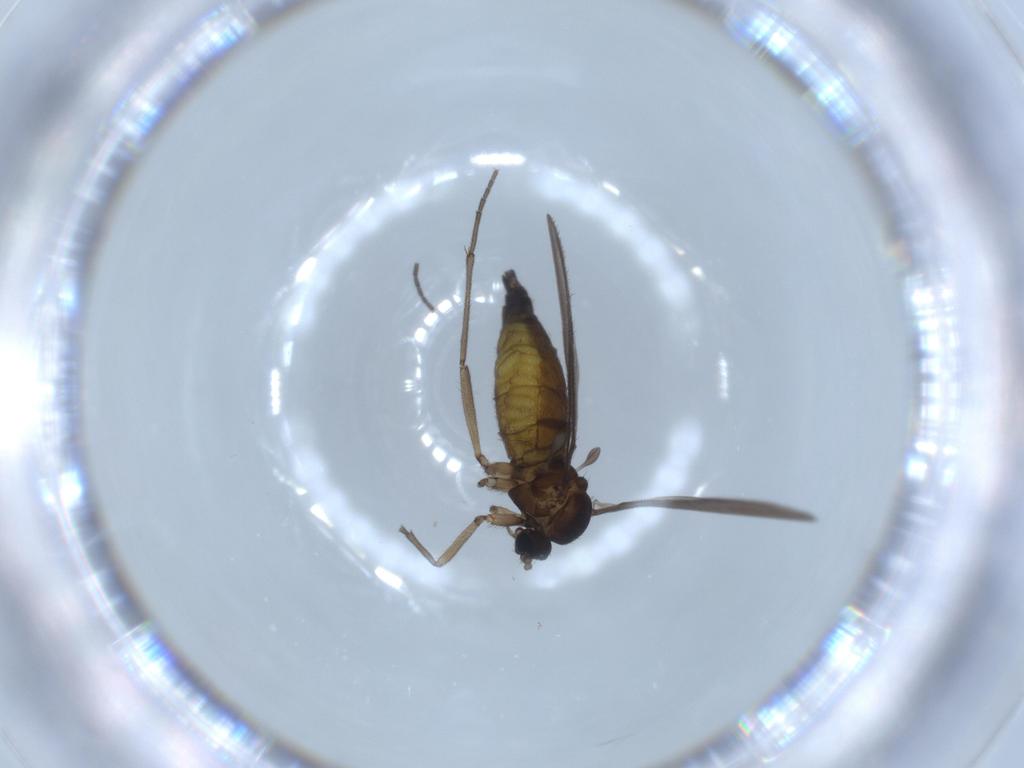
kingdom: Animalia
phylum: Arthropoda
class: Insecta
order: Diptera
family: Sciaridae
